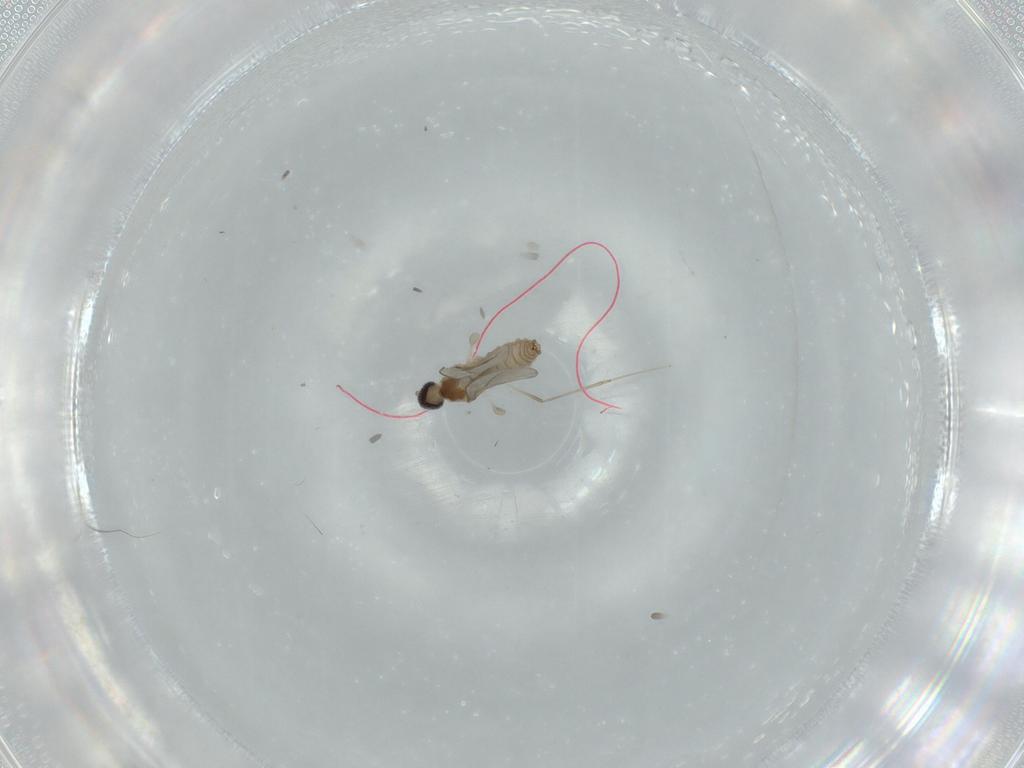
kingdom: Animalia
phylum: Arthropoda
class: Insecta
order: Diptera
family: Cecidomyiidae
